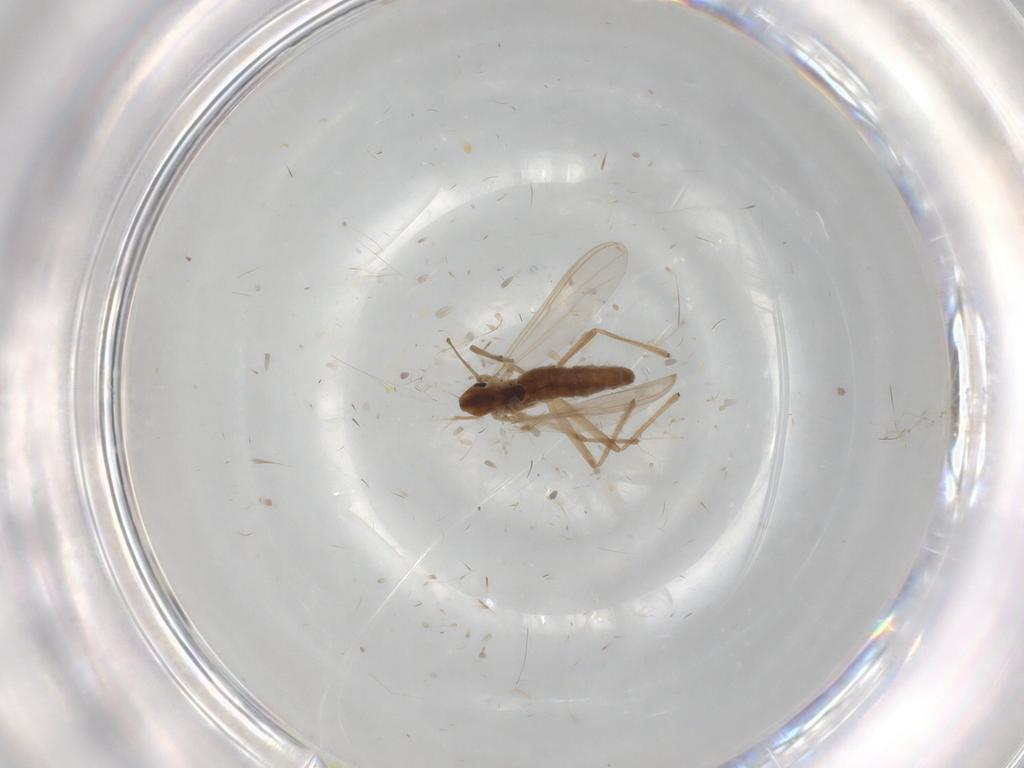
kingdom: Animalia
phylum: Arthropoda
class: Insecta
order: Diptera
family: Chironomidae
